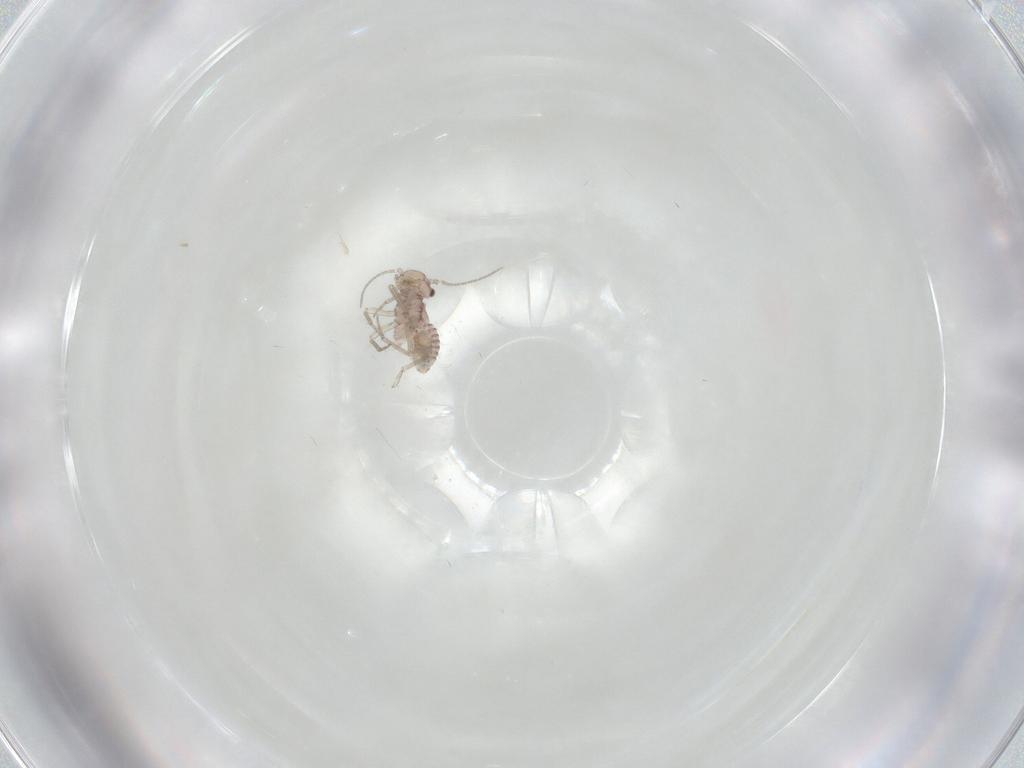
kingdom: Animalia
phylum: Arthropoda
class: Insecta
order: Psocodea
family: Lachesillidae
